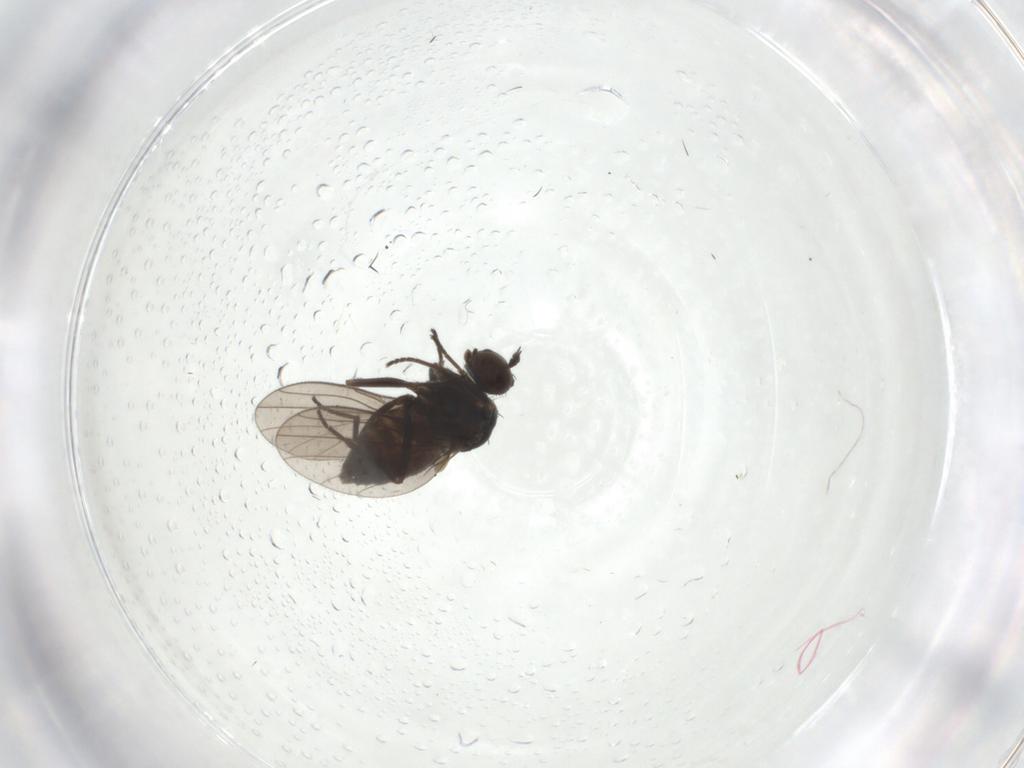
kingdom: Animalia
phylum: Arthropoda
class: Insecta
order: Diptera
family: Dolichopodidae
